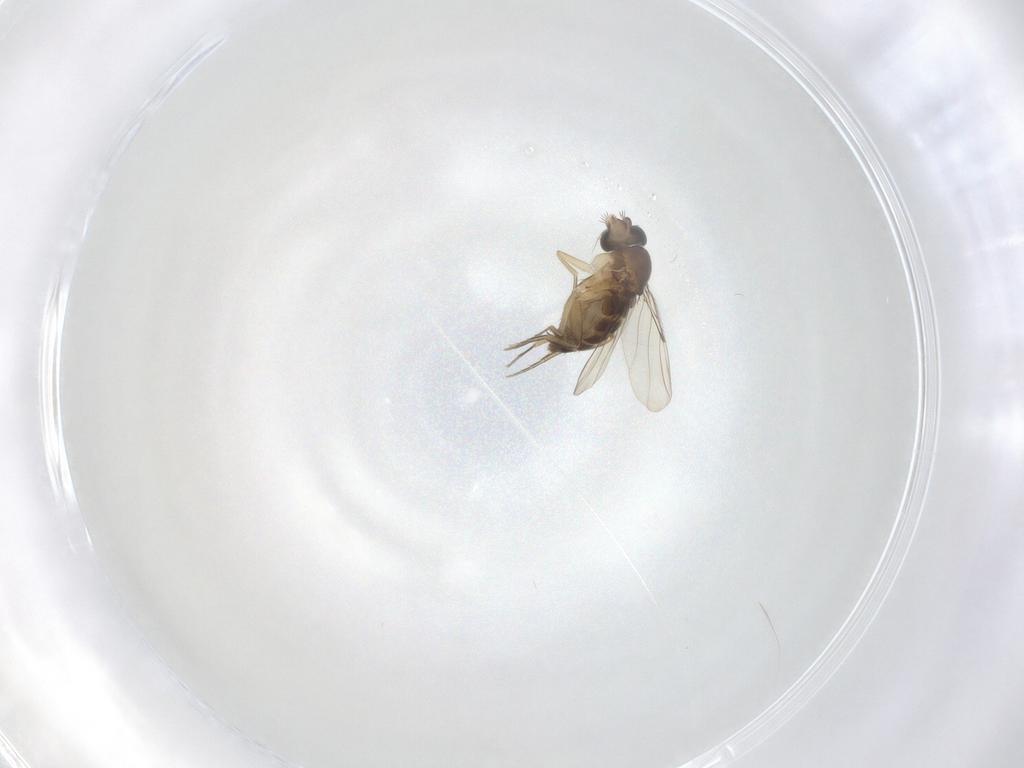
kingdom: Animalia
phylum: Arthropoda
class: Insecta
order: Diptera
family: Phoridae
